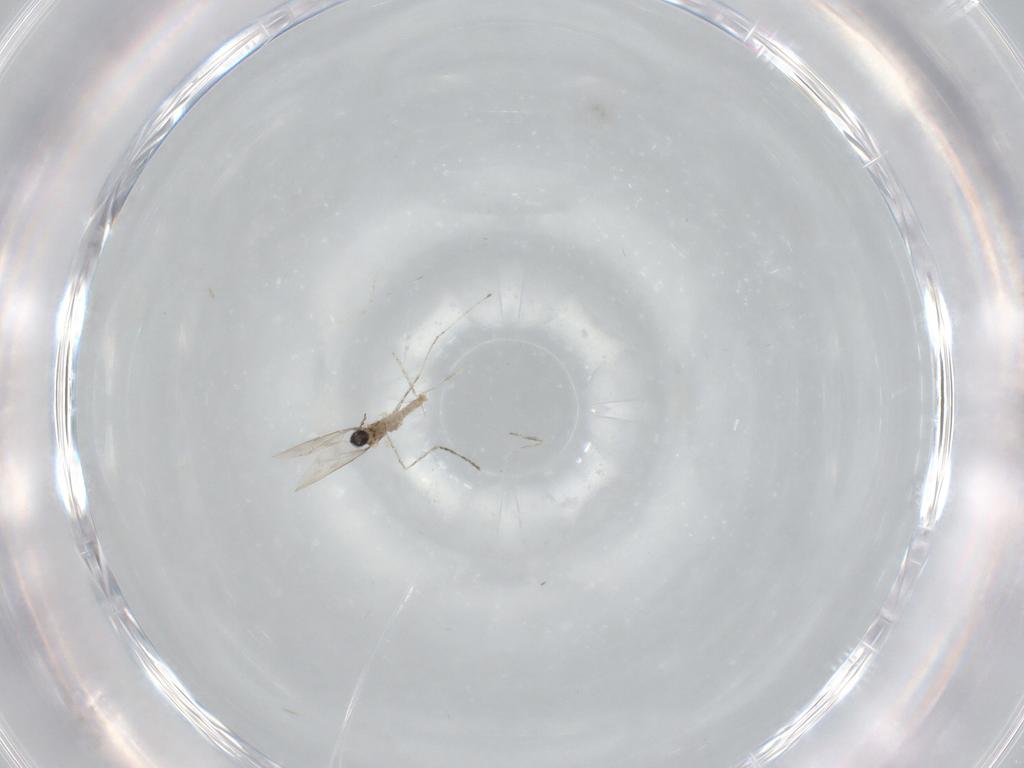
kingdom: Animalia
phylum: Arthropoda
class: Insecta
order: Diptera
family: Cecidomyiidae
